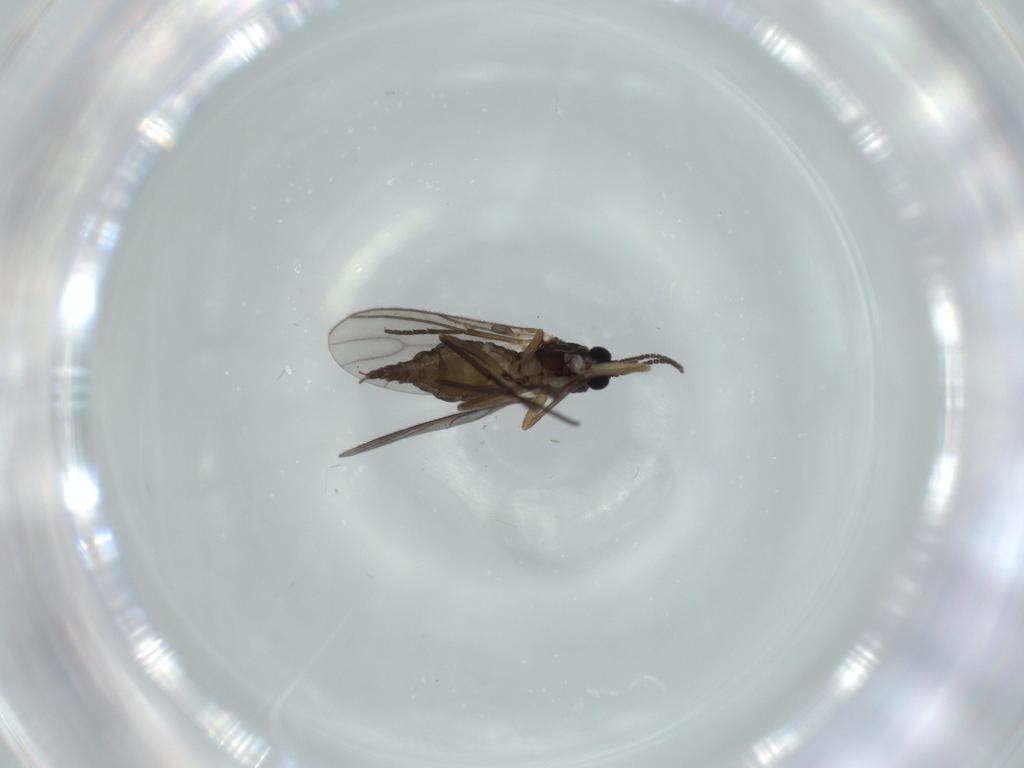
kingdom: Animalia
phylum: Arthropoda
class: Insecta
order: Diptera
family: Sciaridae
